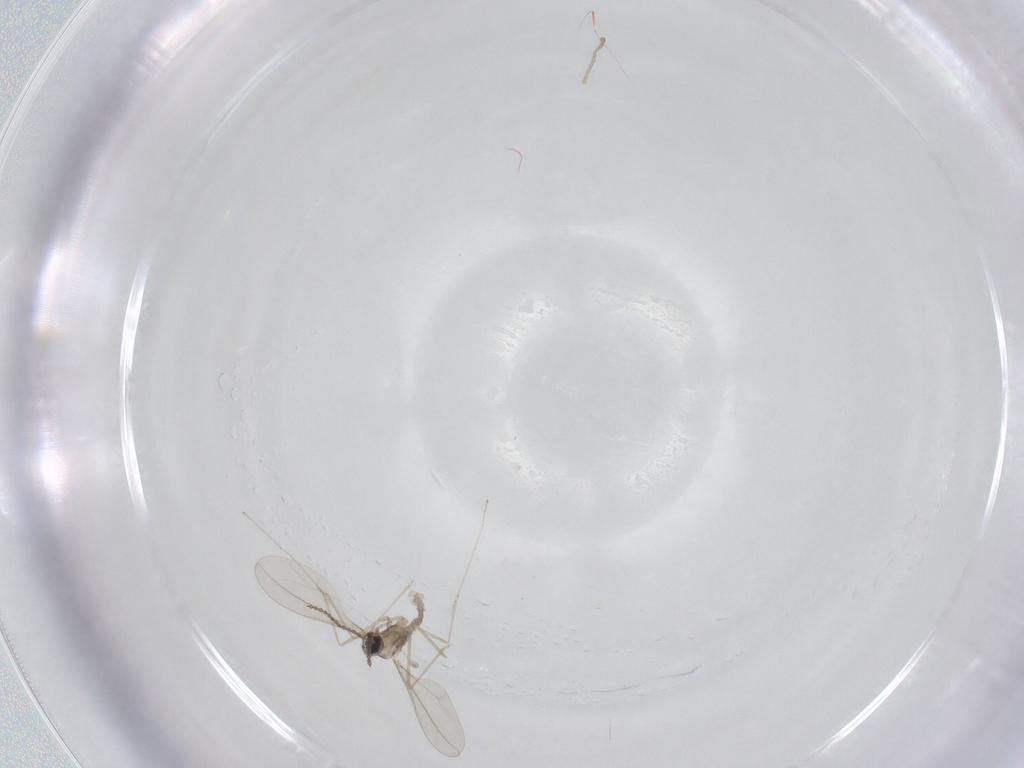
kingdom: Animalia
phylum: Arthropoda
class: Insecta
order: Diptera
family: Cecidomyiidae
